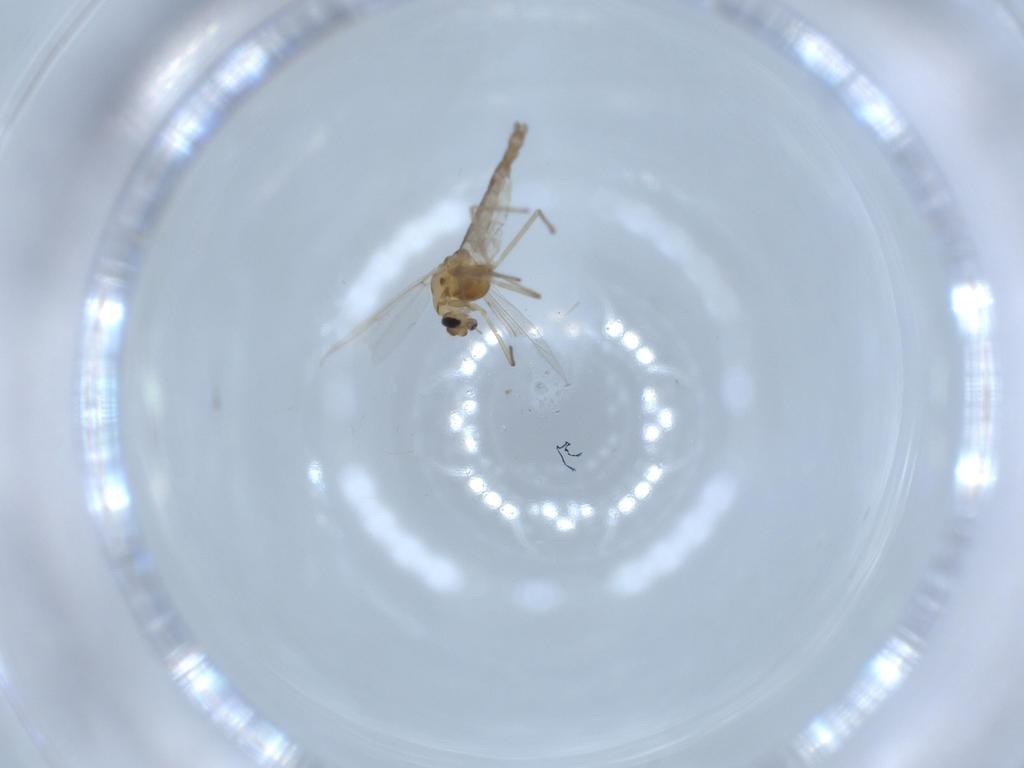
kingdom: Animalia
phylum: Arthropoda
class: Insecta
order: Diptera
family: Chironomidae
